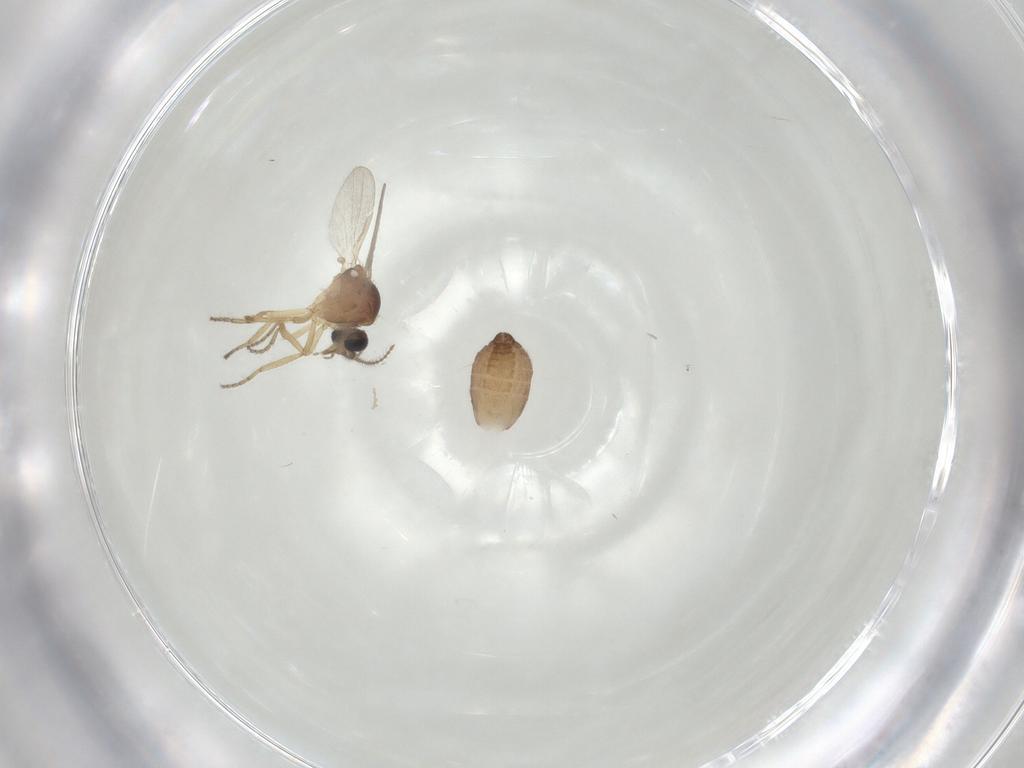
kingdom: Animalia
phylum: Arthropoda
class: Insecta
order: Diptera
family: Ceratopogonidae
